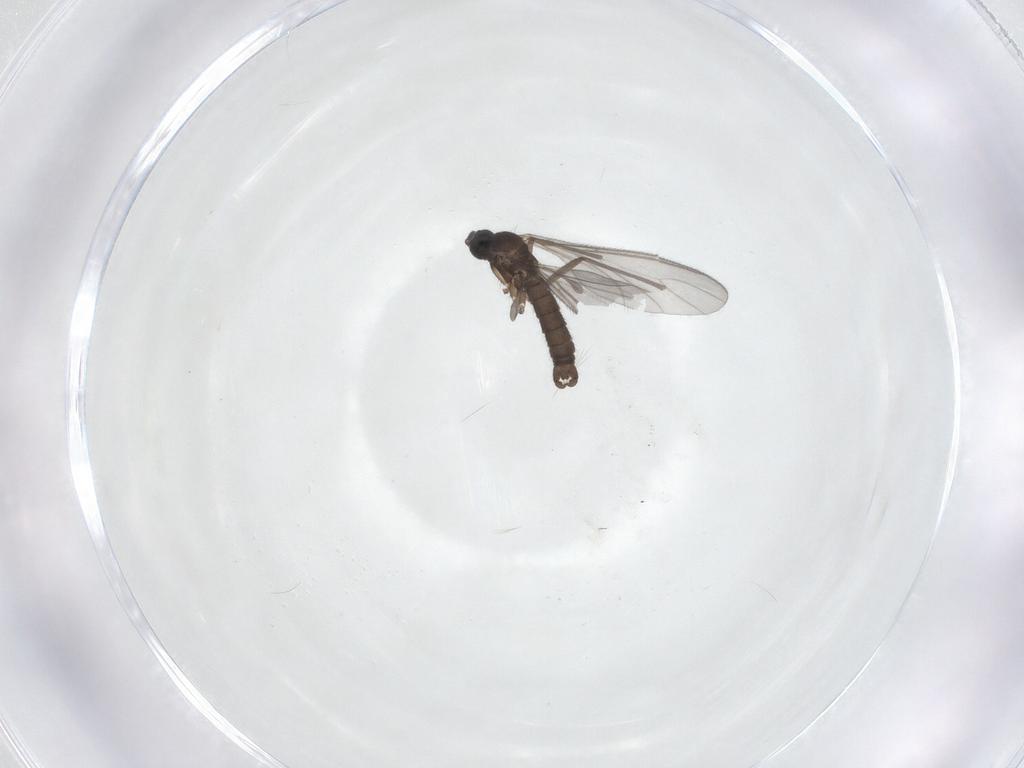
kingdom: Animalia
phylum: Arthropoda
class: Insecta
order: Diptera
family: Sciaridae
